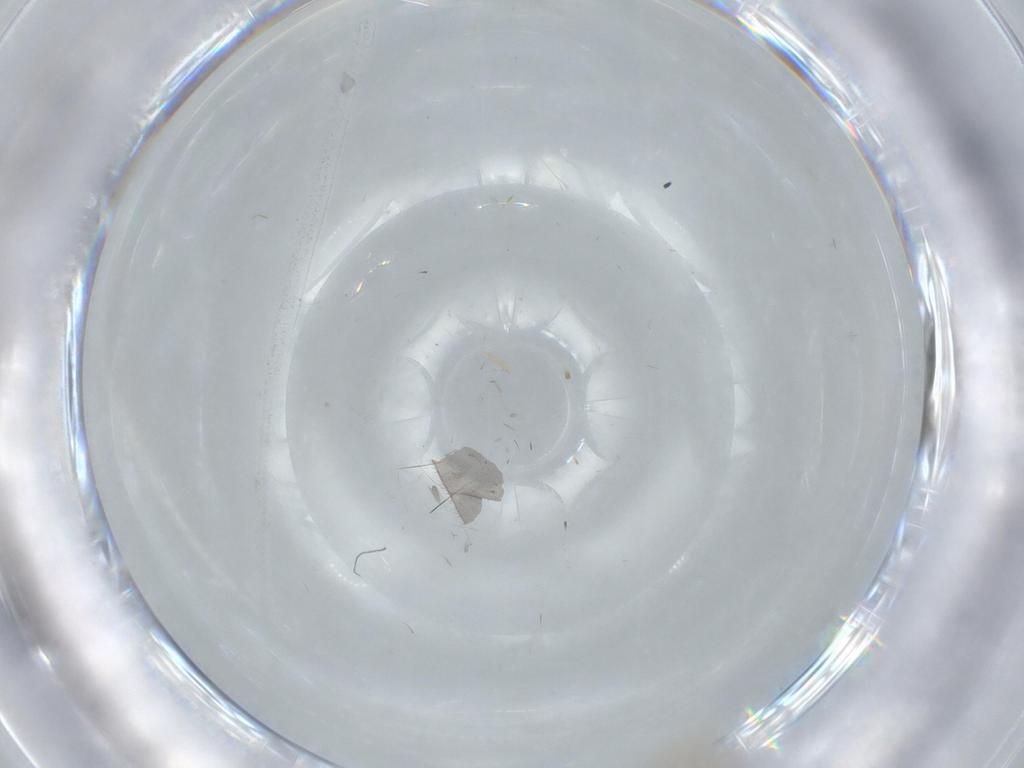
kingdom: Animalia
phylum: Arthropoda
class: Insecta
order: Diptera
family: Cecidomyiidae
